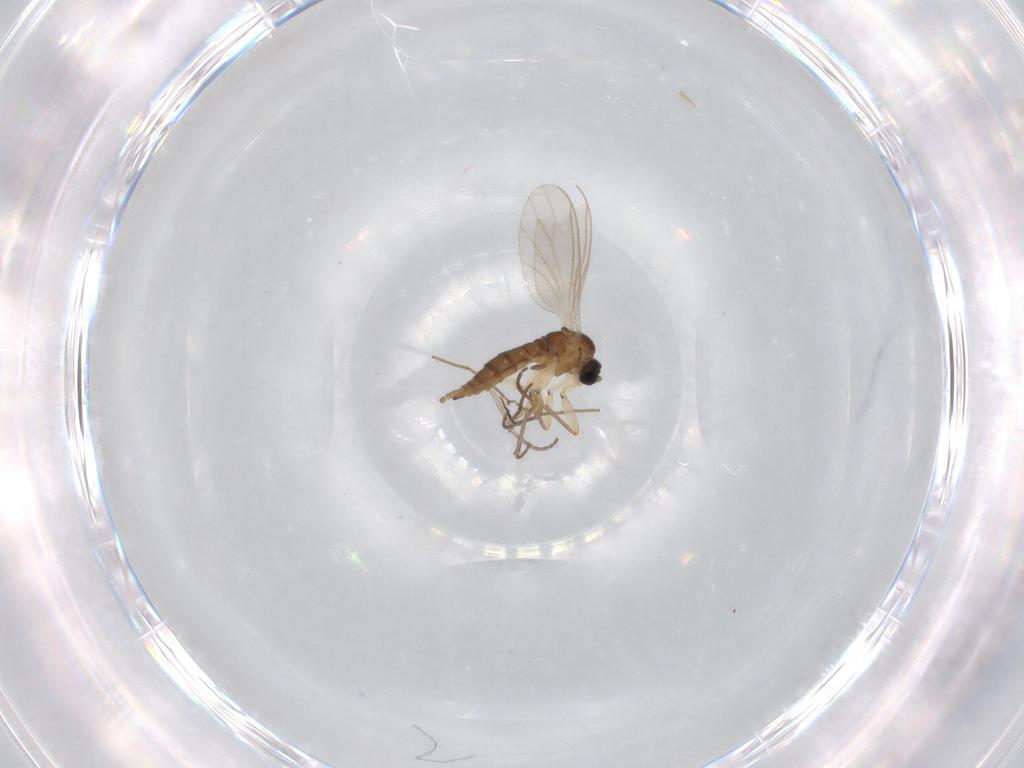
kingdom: Animalia
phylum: Arthropoda
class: Insecta
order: Diptera
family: Sciaridae
